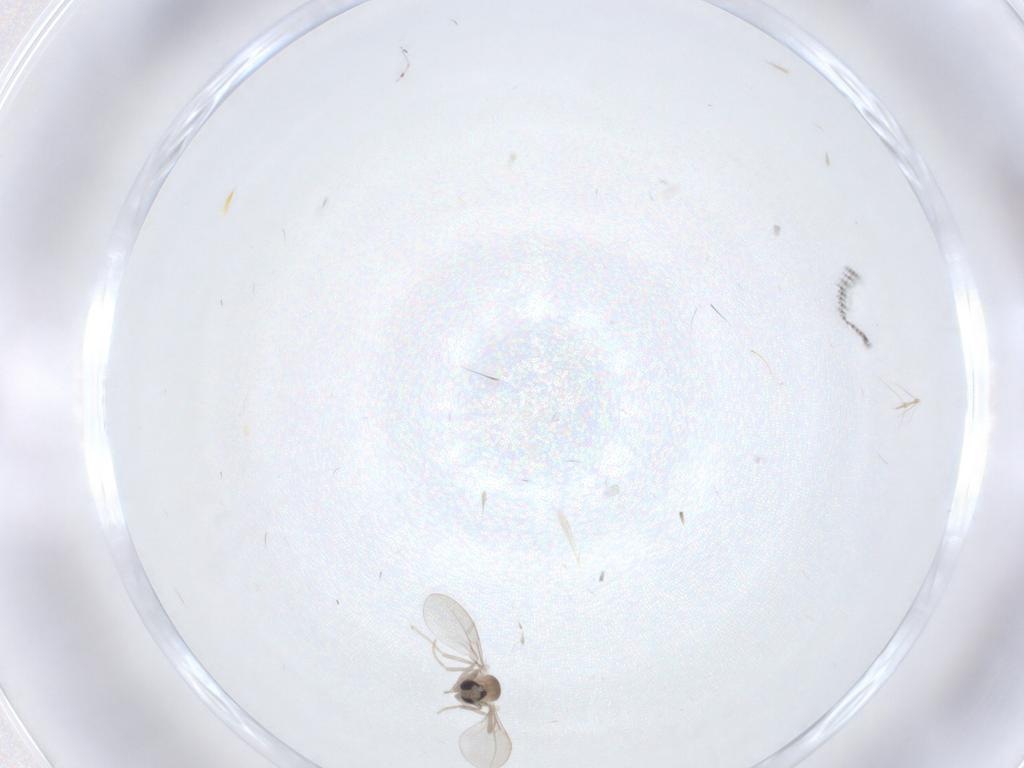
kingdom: Animalia
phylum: Arthropoda
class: Insecta
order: Diptera
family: Cecidomyiidae
